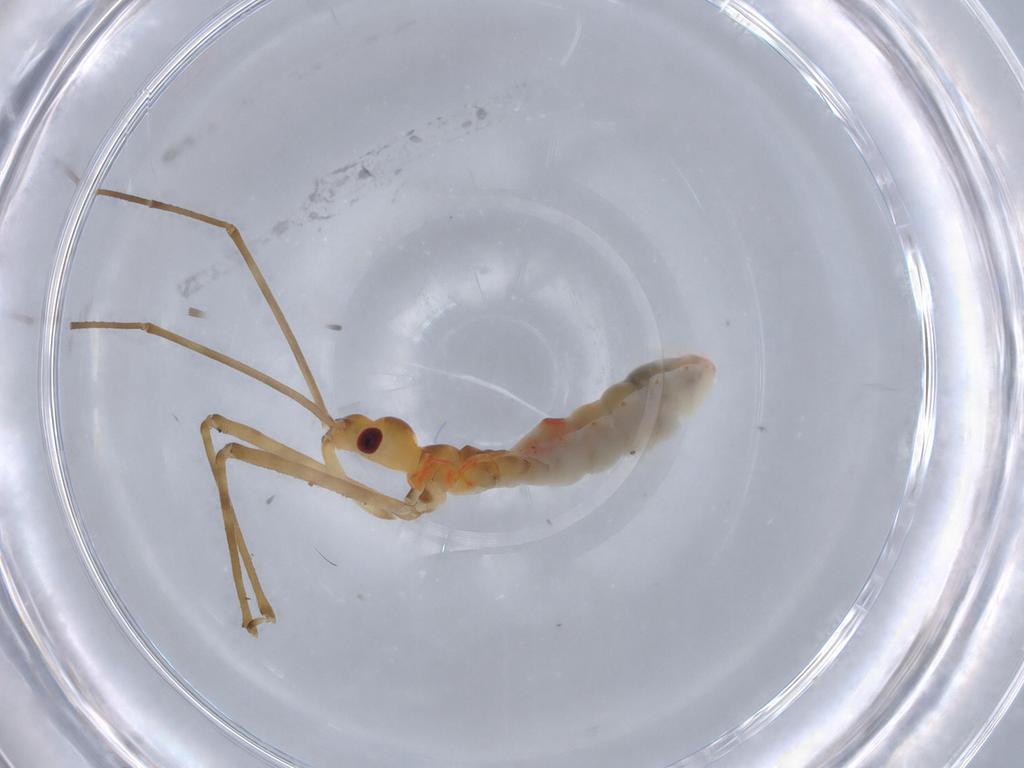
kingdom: Animalia
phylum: Arthropoda
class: Insecta
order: Hemiptera
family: Reduviidae
